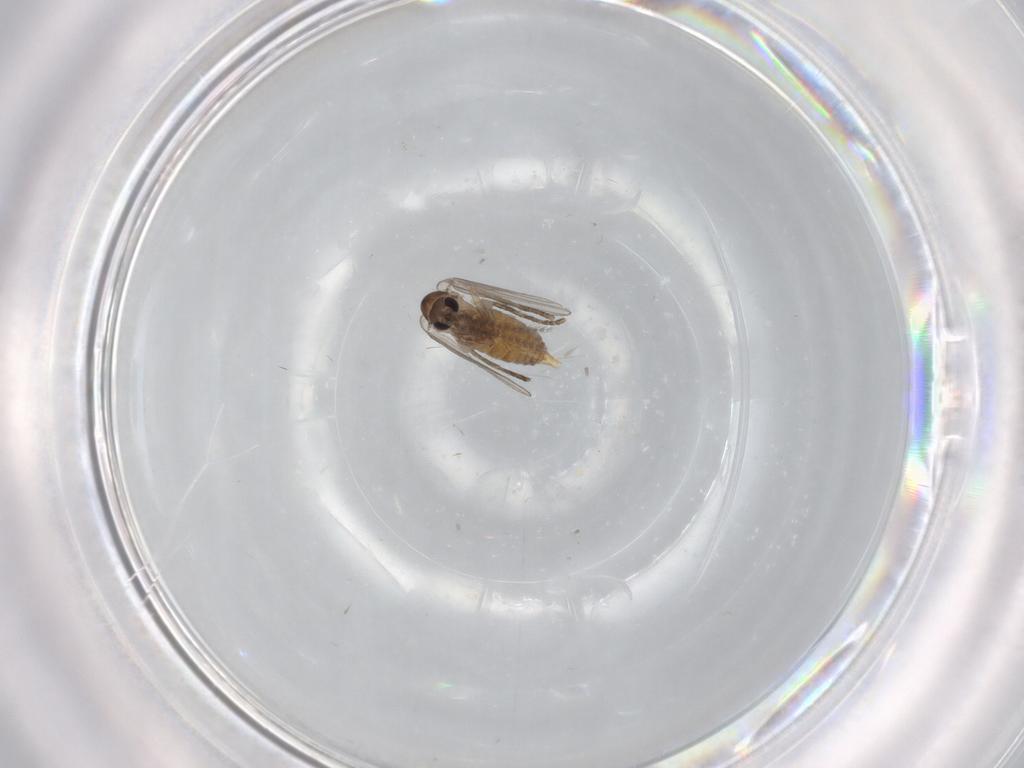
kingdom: Animalia
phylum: Arthropoda
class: Insecta
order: Diptera
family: Psychodidae
